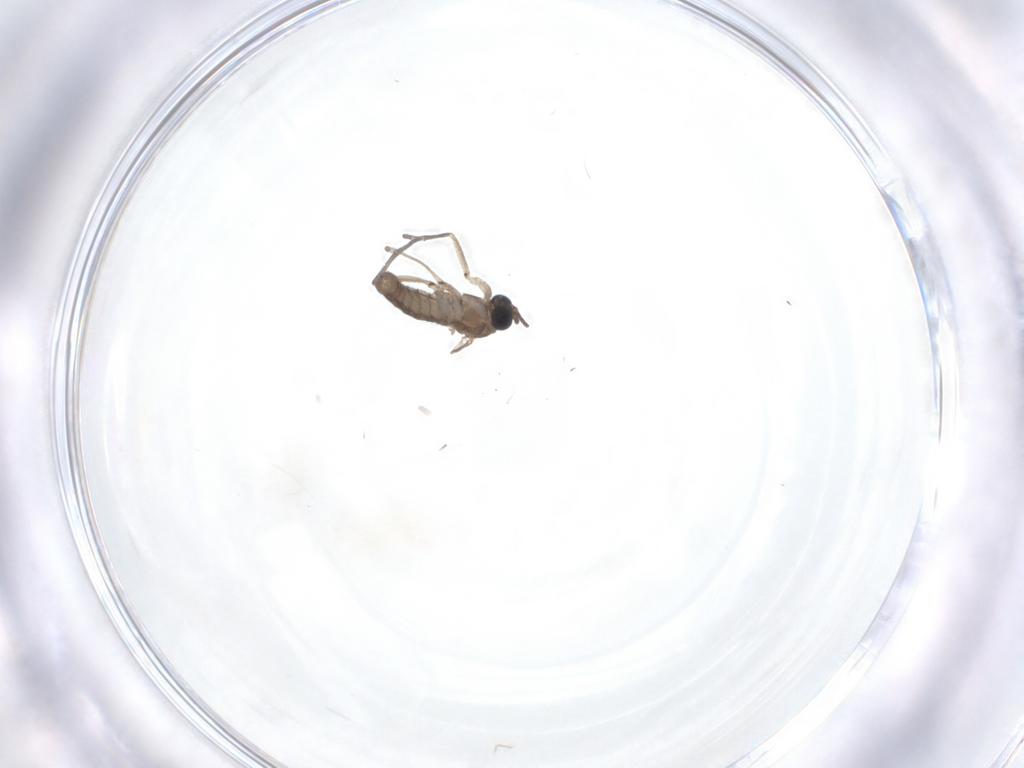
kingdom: Animalia
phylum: Arthropoda
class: Insecta
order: Diptera
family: Sciaridae
